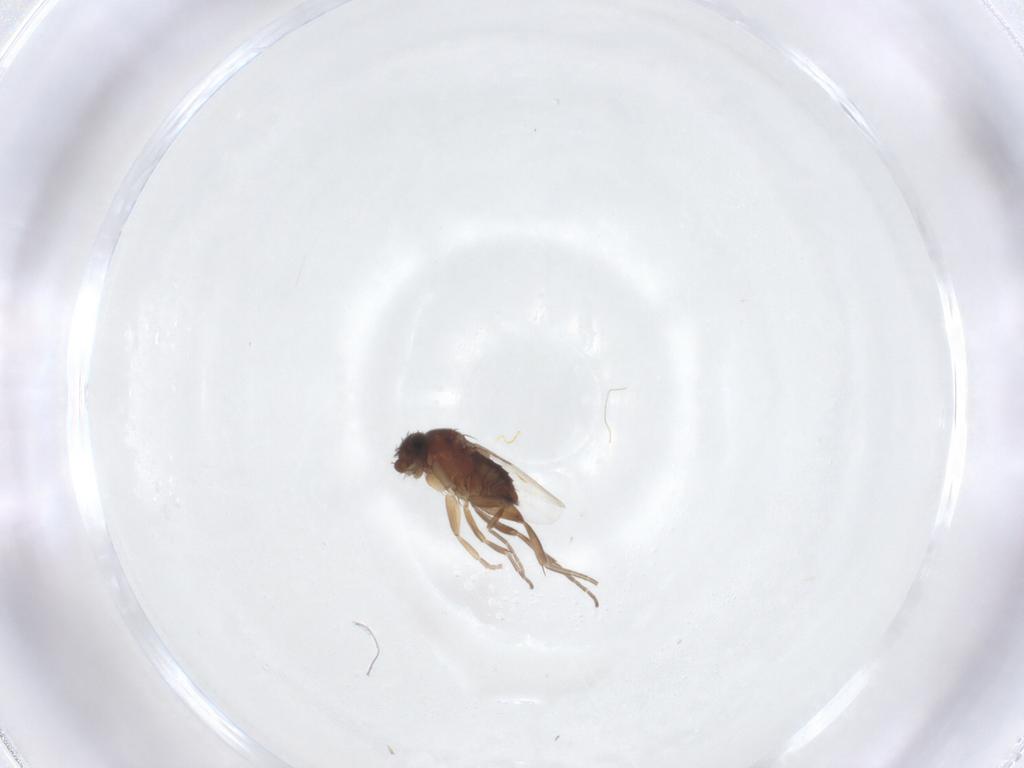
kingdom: Animalia
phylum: Arthropoda
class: Insecta
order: Diptera
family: Phoridae
